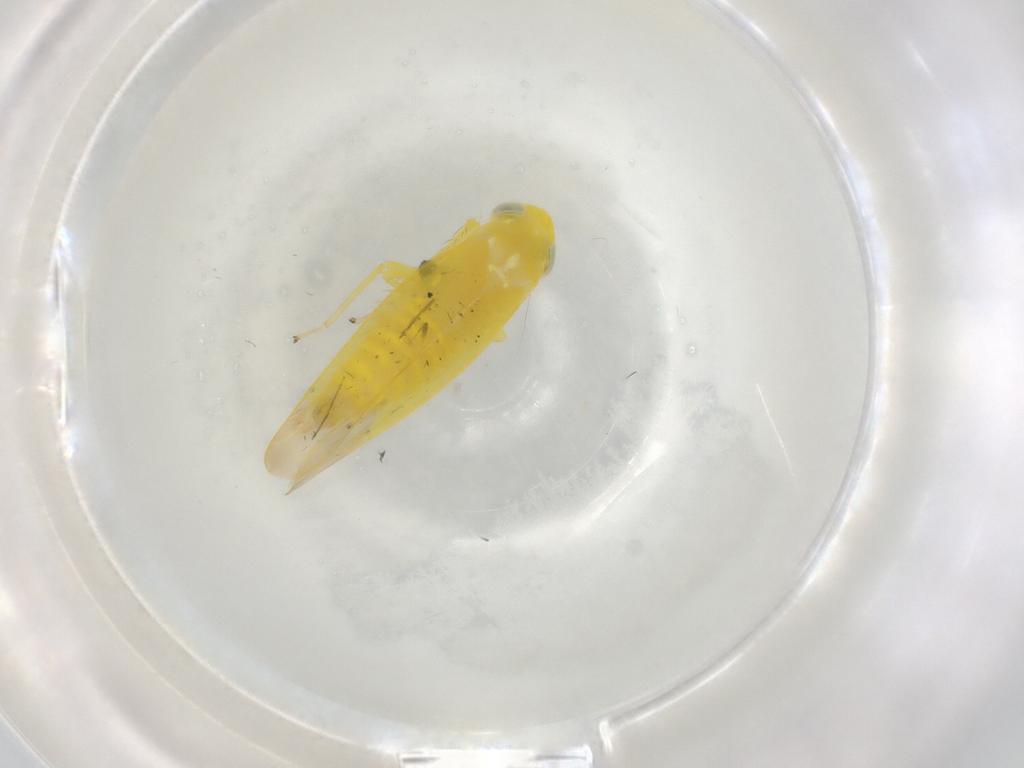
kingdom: Animalia
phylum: Arthropoda
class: Insecta
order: Hemiptera
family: Cicadellidae
